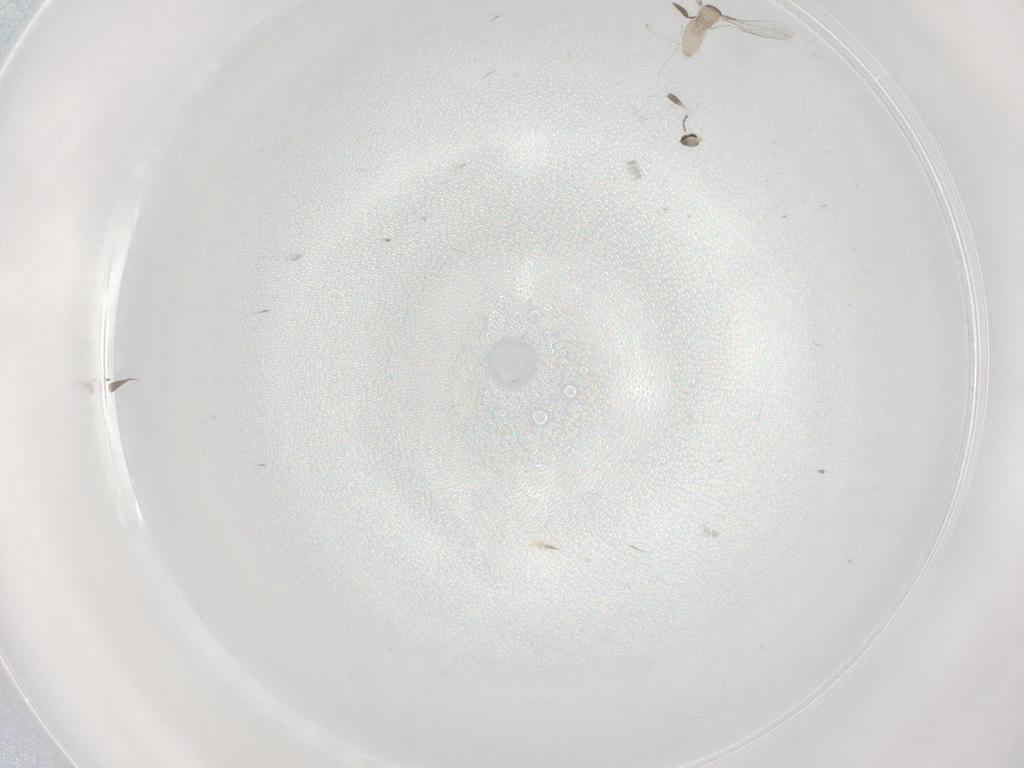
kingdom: Animalia
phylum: Arthropoda
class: Insecta
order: Diptera
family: Cecidomyiidae
